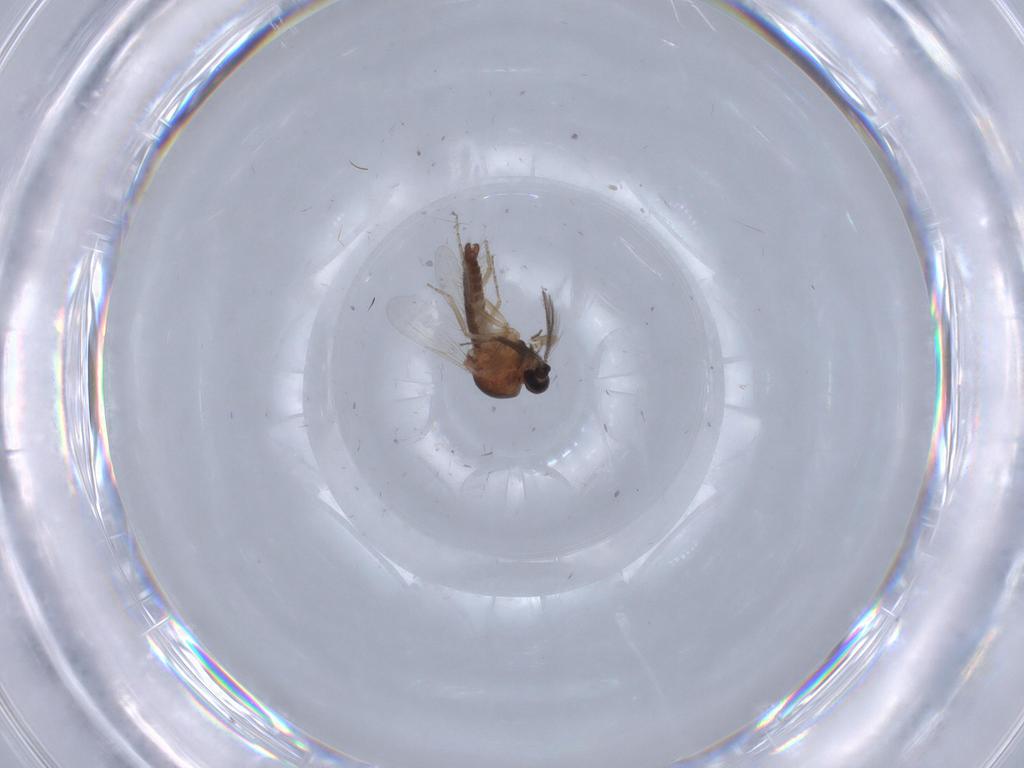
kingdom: Animalia
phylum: Arthropoda
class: Insecta
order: Diptera
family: Ceratopogonidae
